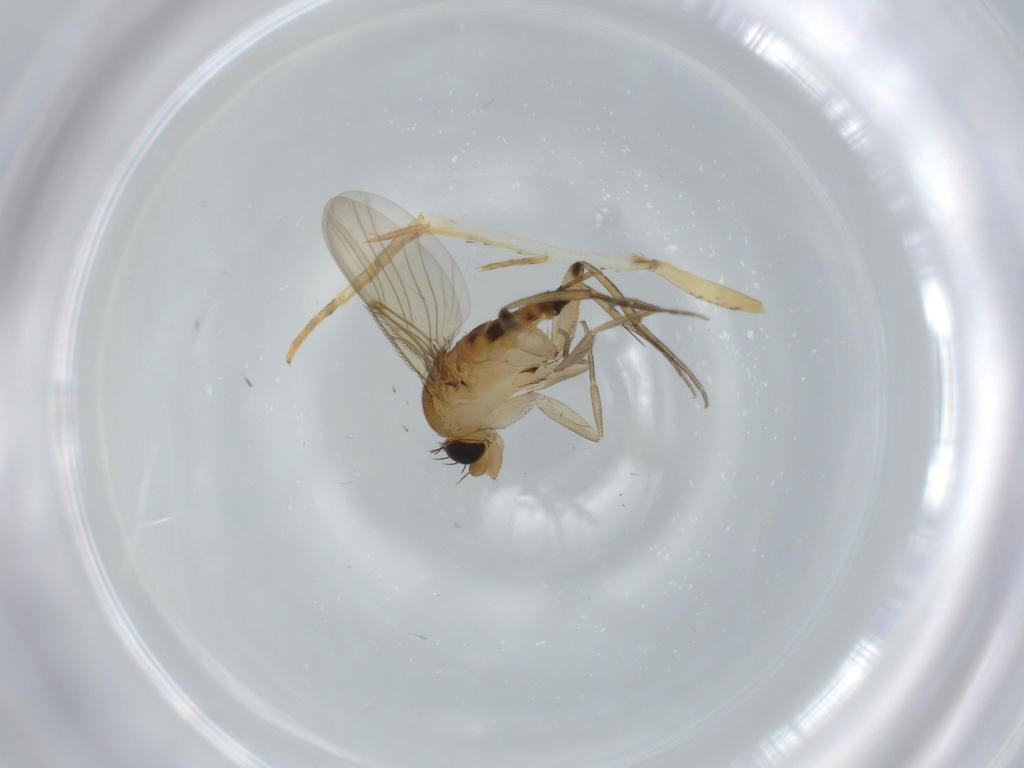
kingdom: Animalia
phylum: Arthropoda
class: Insecta
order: Diptera
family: Phoridae
